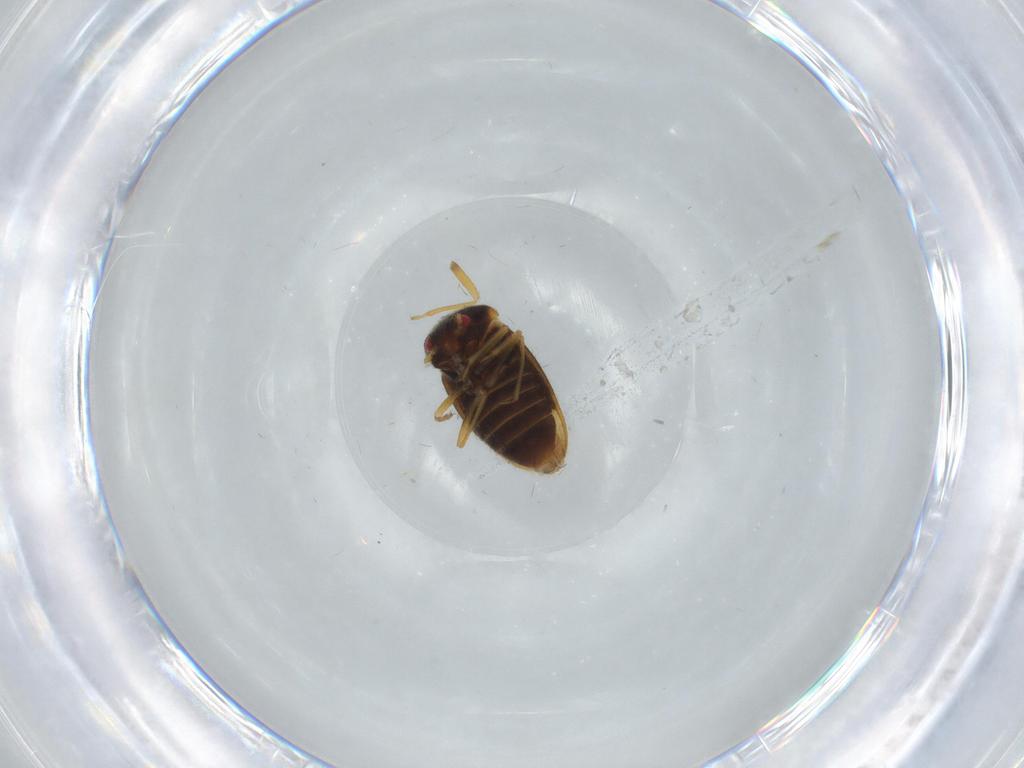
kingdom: Animalia
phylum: Arthropoda
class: Insecta
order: Hemiptera
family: Schizopteridae
